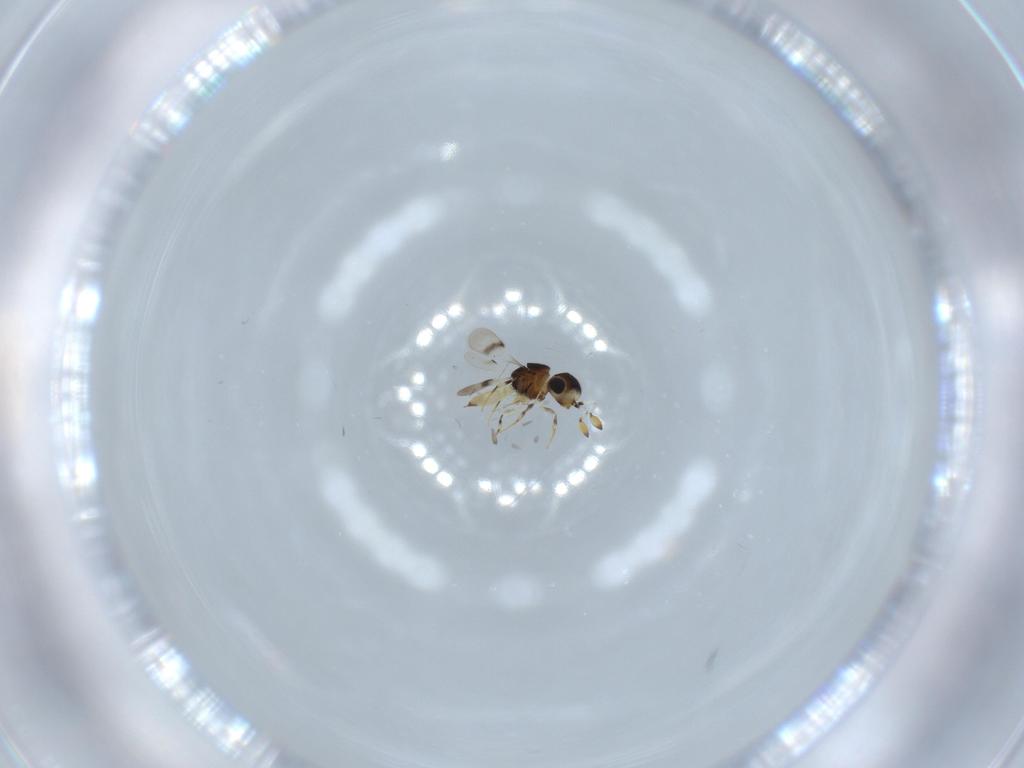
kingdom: Animalia
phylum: Arthropoda
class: Insecta
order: Hymenoptera
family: Scelionidae
